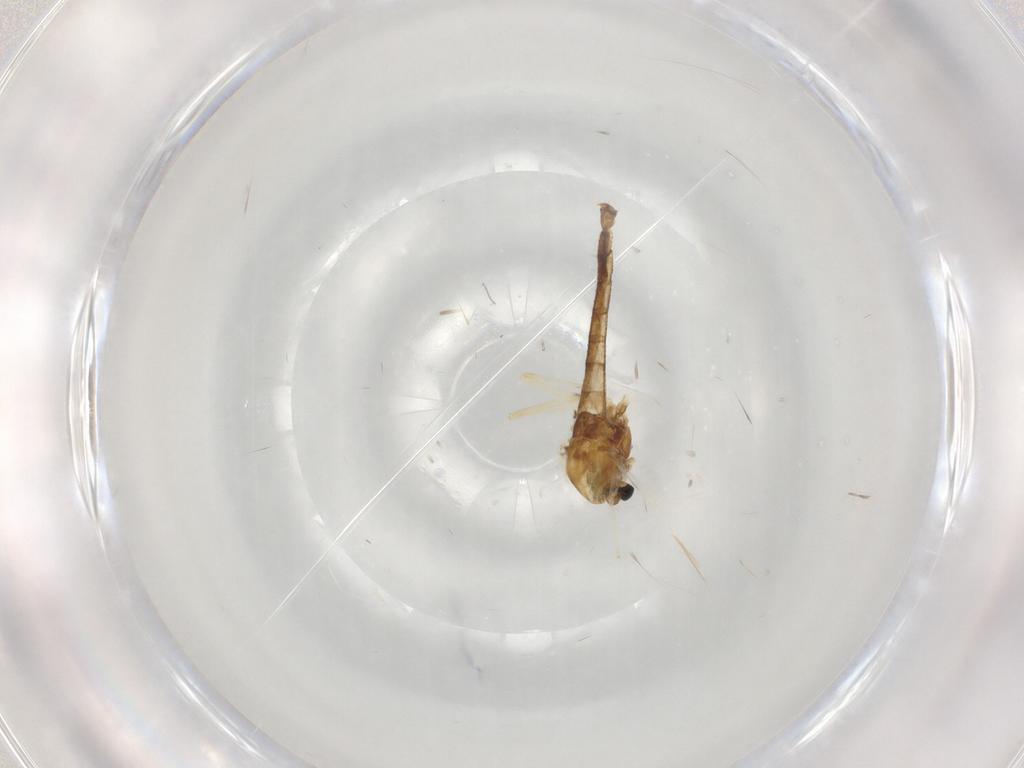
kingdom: Animalia
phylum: Arthropoda
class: Insecta
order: Diptera
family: Chironomidae
